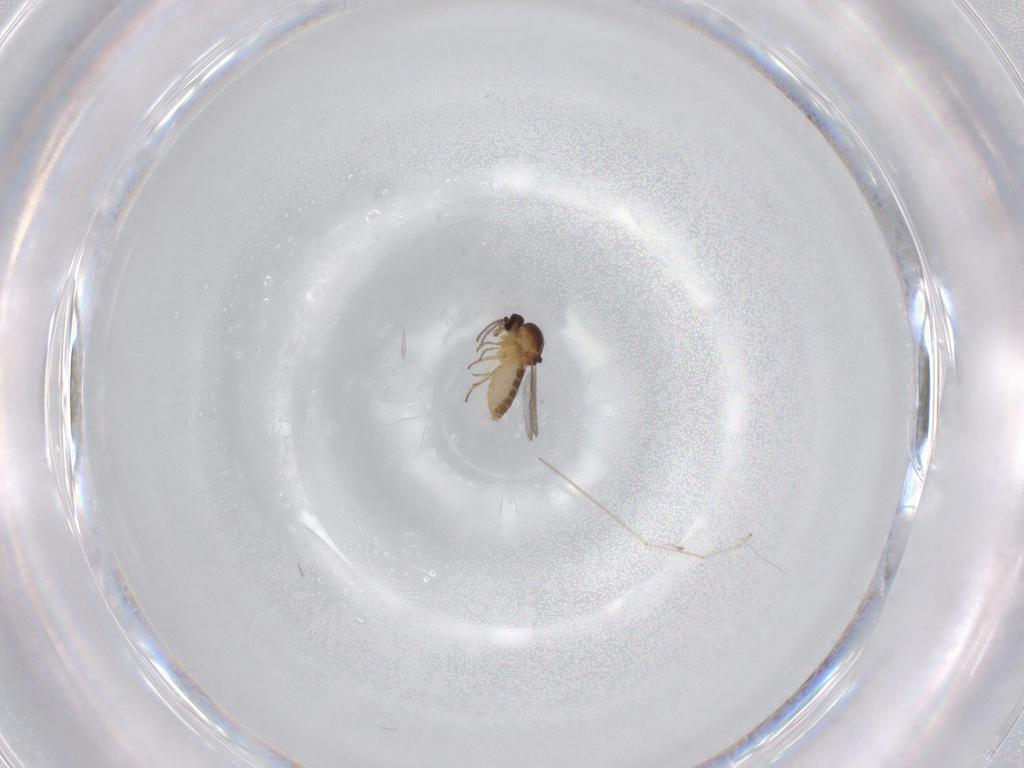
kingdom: Animalia
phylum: Arthropoda
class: Insecta
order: Diptera
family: Ceratopogonidae
